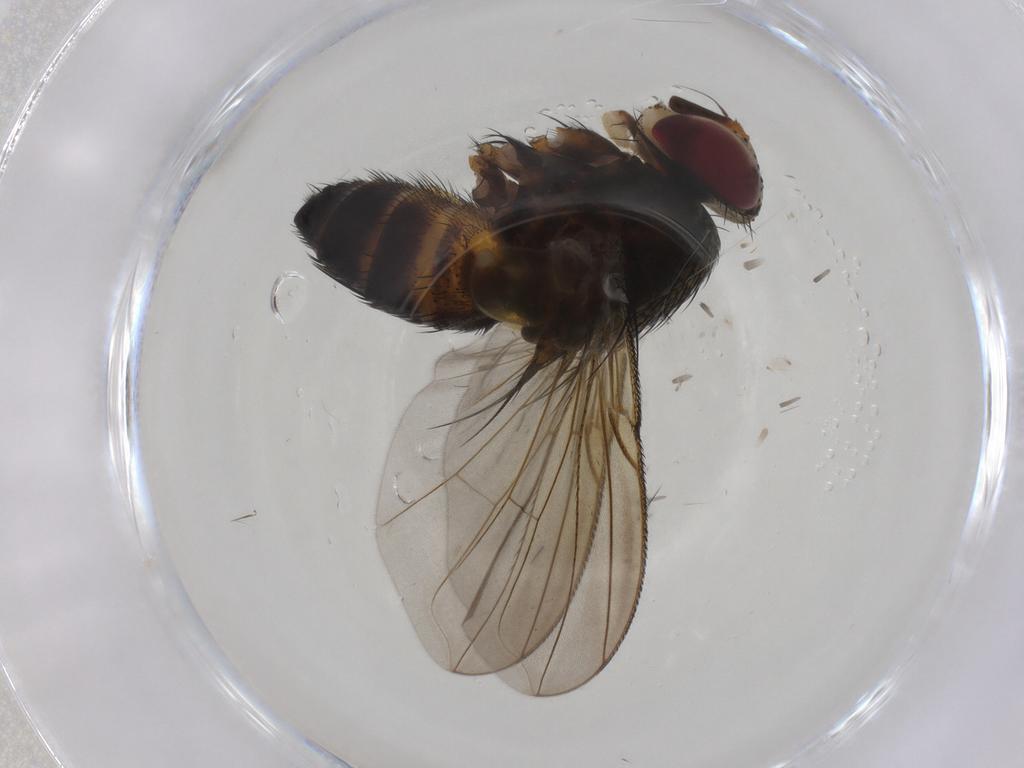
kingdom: Animalia
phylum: Arthropoda
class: Insecta
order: Diptera
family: Tachinidae
